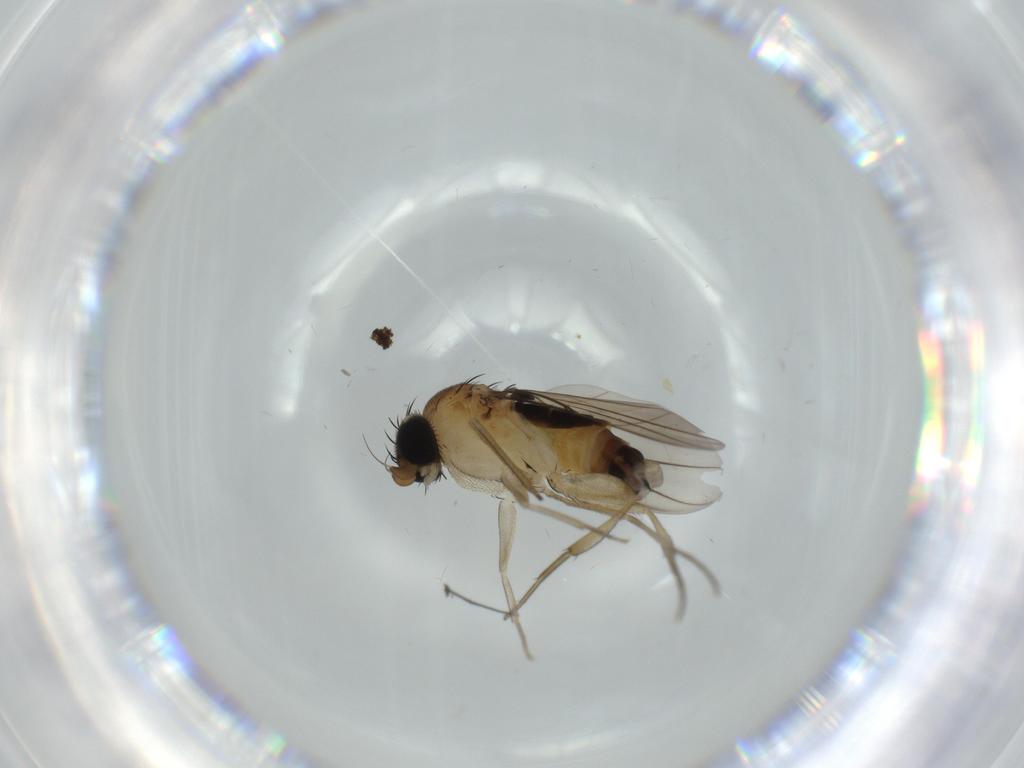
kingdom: Animalia
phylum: Arthropoda
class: Insecta
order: Diptera
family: Phoridae
